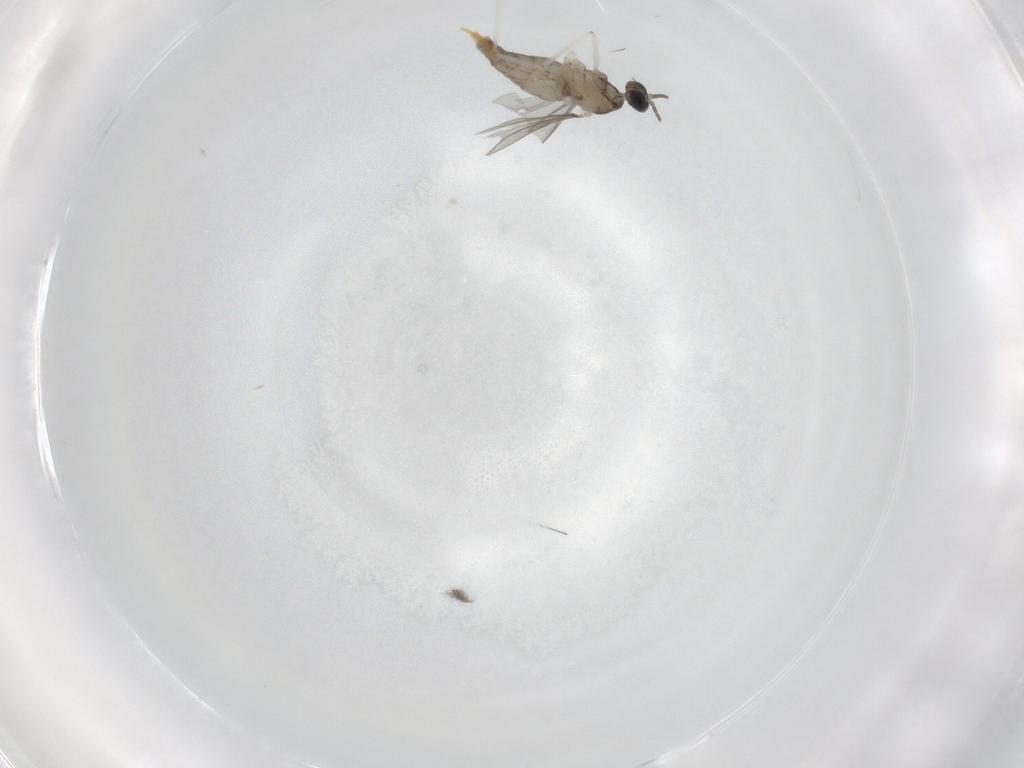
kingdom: Animalia
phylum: Arthropoda
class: Insecta
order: Diptera
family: Cecidomyiidae
